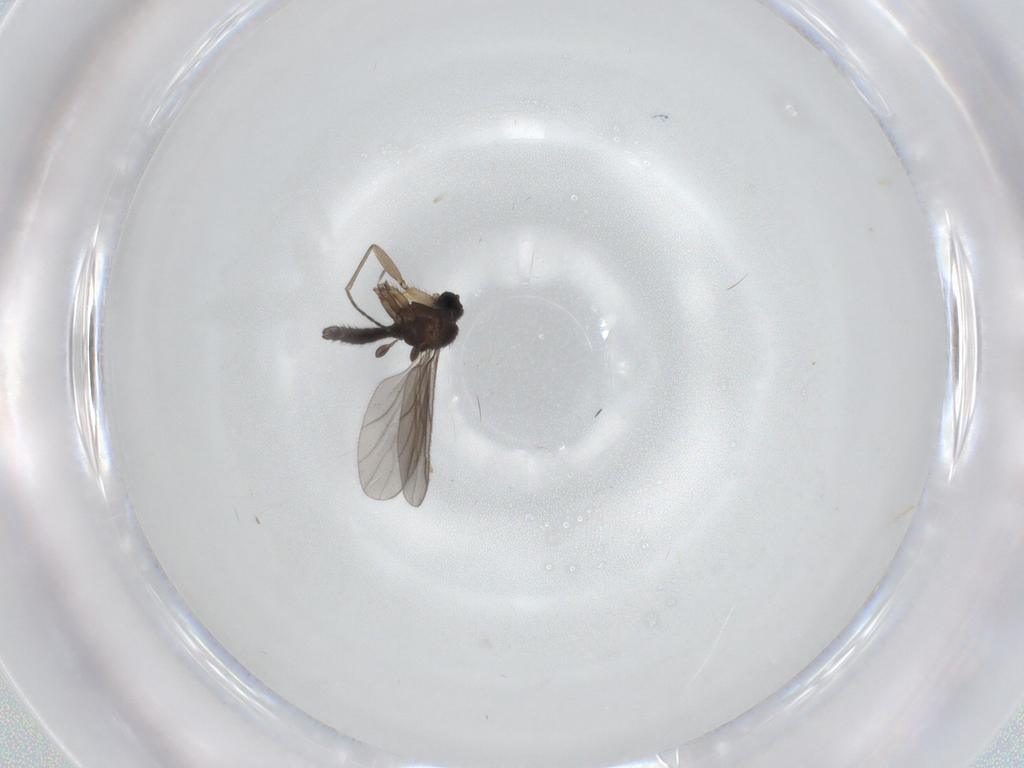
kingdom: Animalia
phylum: Arthropoda
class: Insecta
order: Diptera
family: Sciaridae
